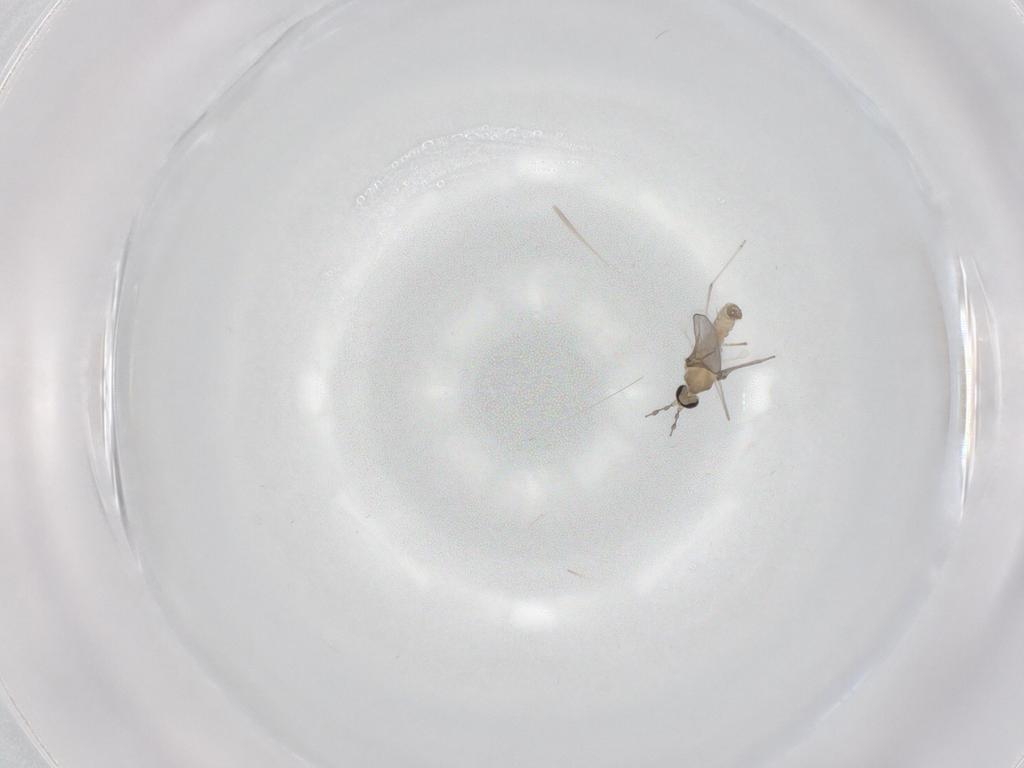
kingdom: Animalia
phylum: Arthropoda
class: Insecta
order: Diptera
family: Cecidomyiidae
